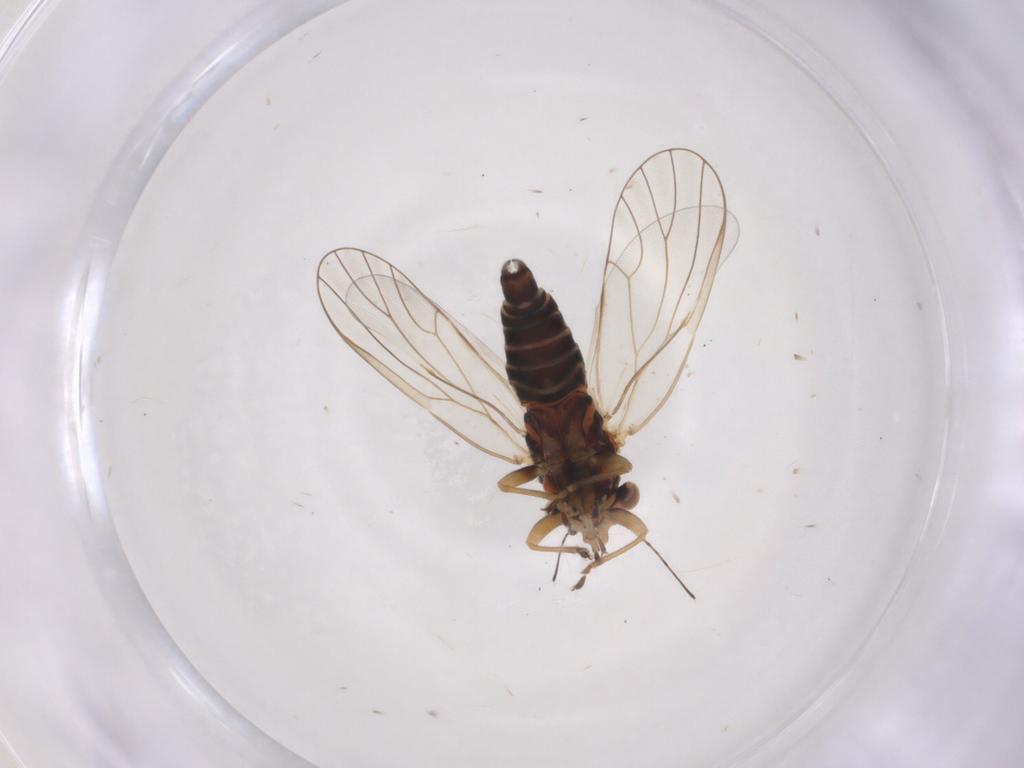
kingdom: Animalia
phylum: Arthropoda
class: Insecta
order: Hemiptera
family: Psyllidae
